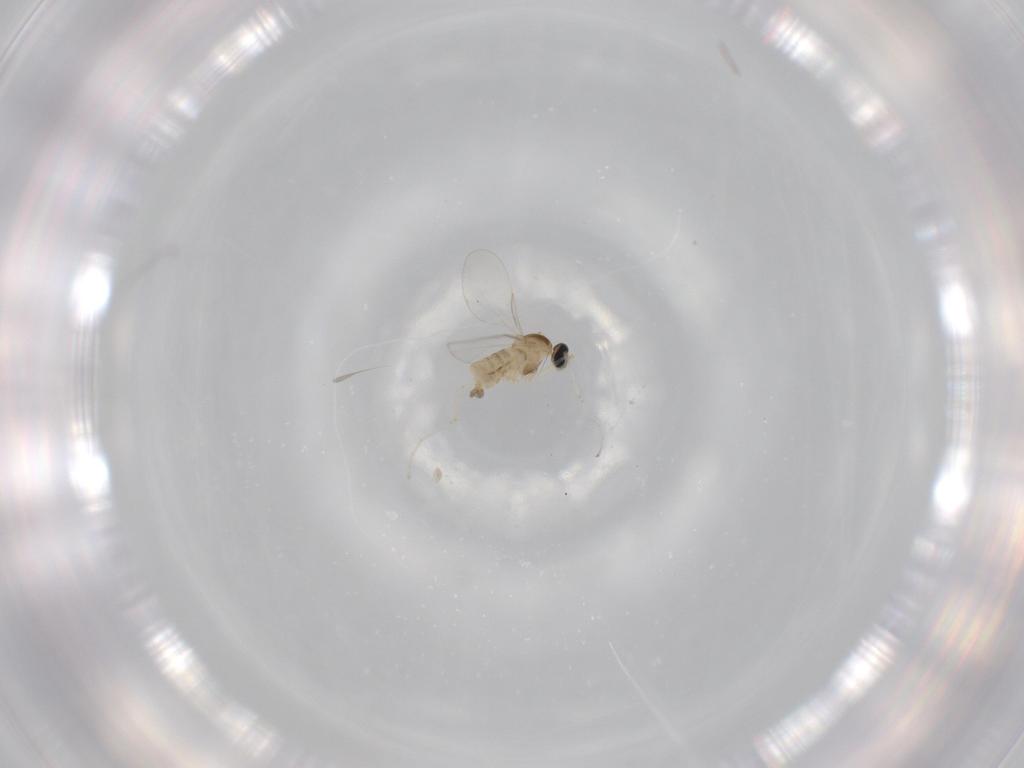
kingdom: Animalia
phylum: Arthropoda
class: Insecta
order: Diptera
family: Cecidomyiidae
